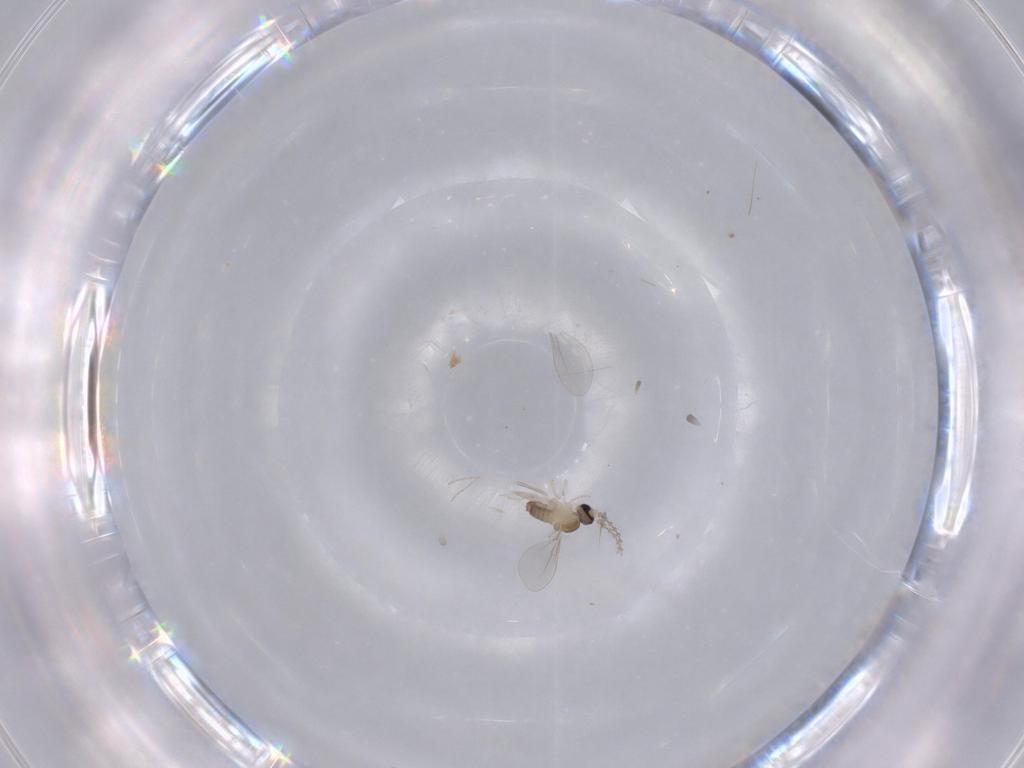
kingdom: Animalia
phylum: Arthropoda
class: Insecta
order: Diptera
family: Cecidomyiidae
